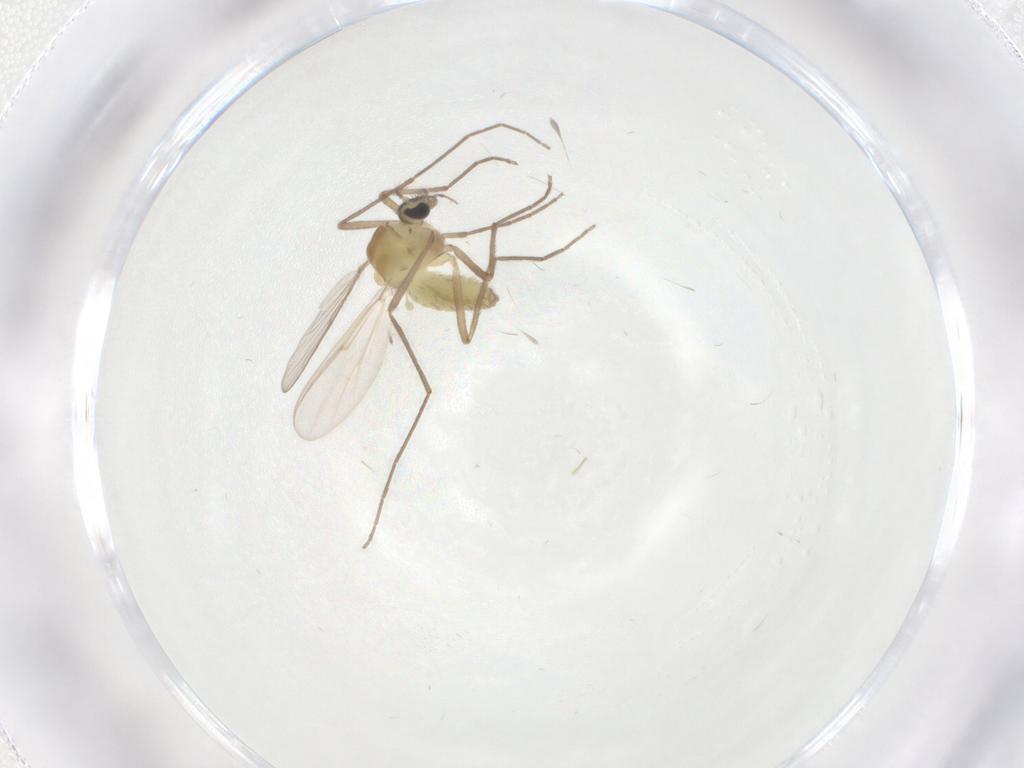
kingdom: Animalia
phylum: Arthropoda
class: Insecta
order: Diptera
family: Chironomidae
